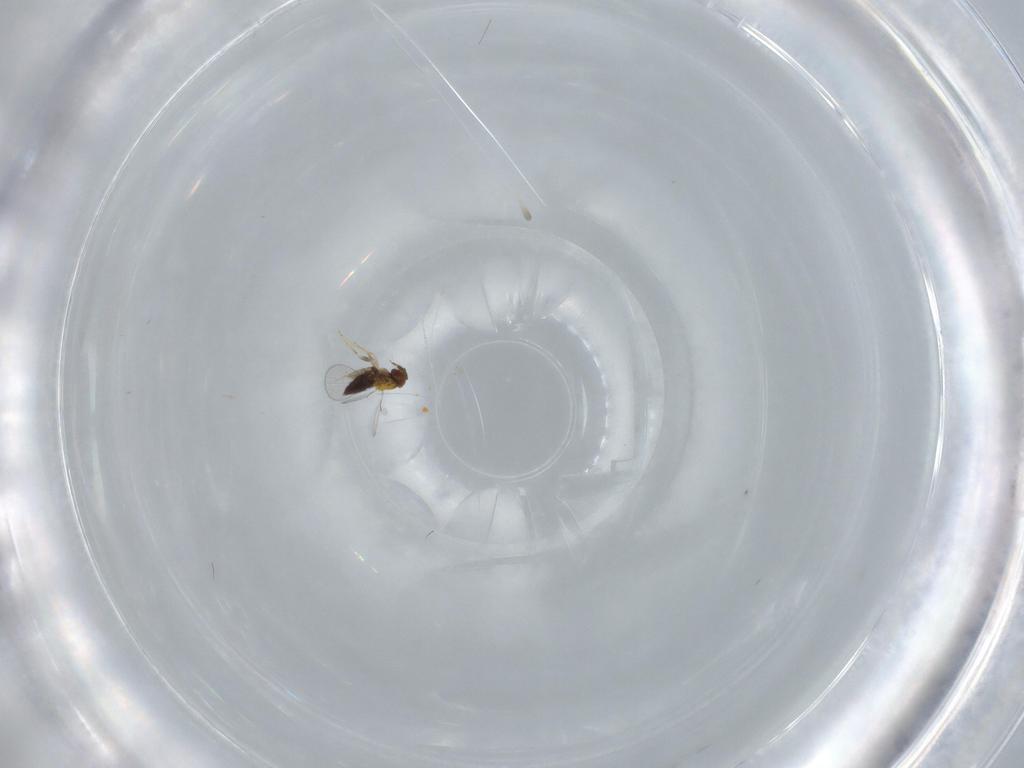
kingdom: Animalia
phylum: Arthropoda
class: Insecta
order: Hymenoptera
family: Trichogrammatidae
